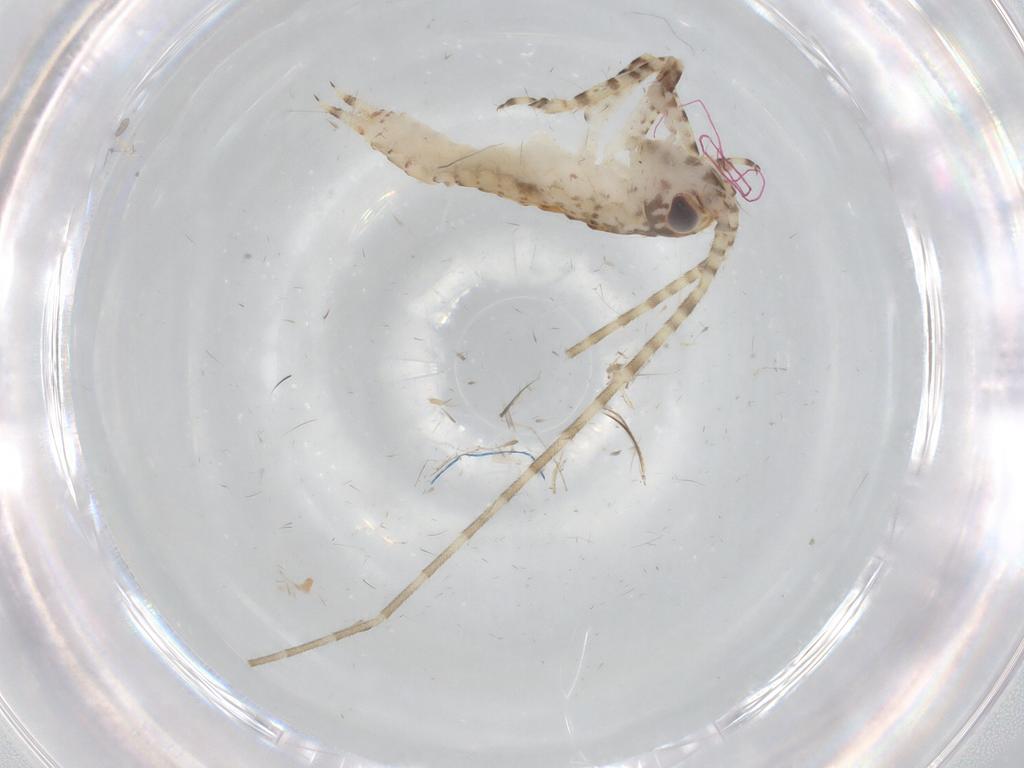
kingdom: Animalia
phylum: Arthropoda
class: Insecta
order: Orthoptera
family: Gryllidae
